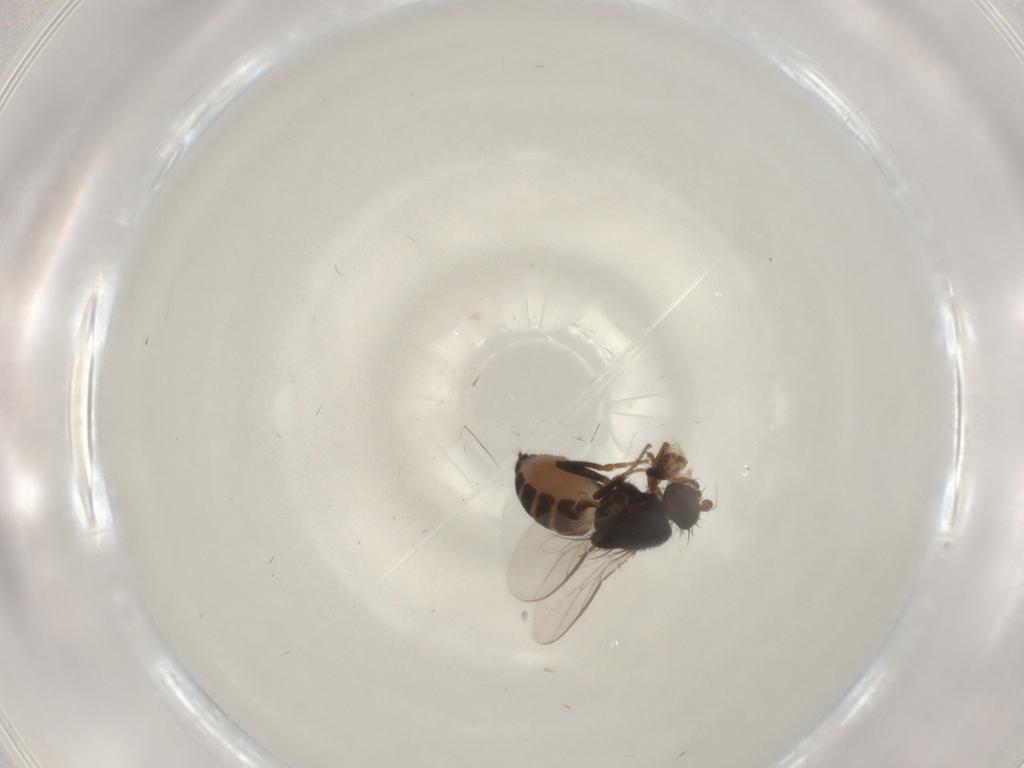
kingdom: Animalia
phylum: Arthropoda
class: Insecta
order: Diptera
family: Sphaeroceridae
